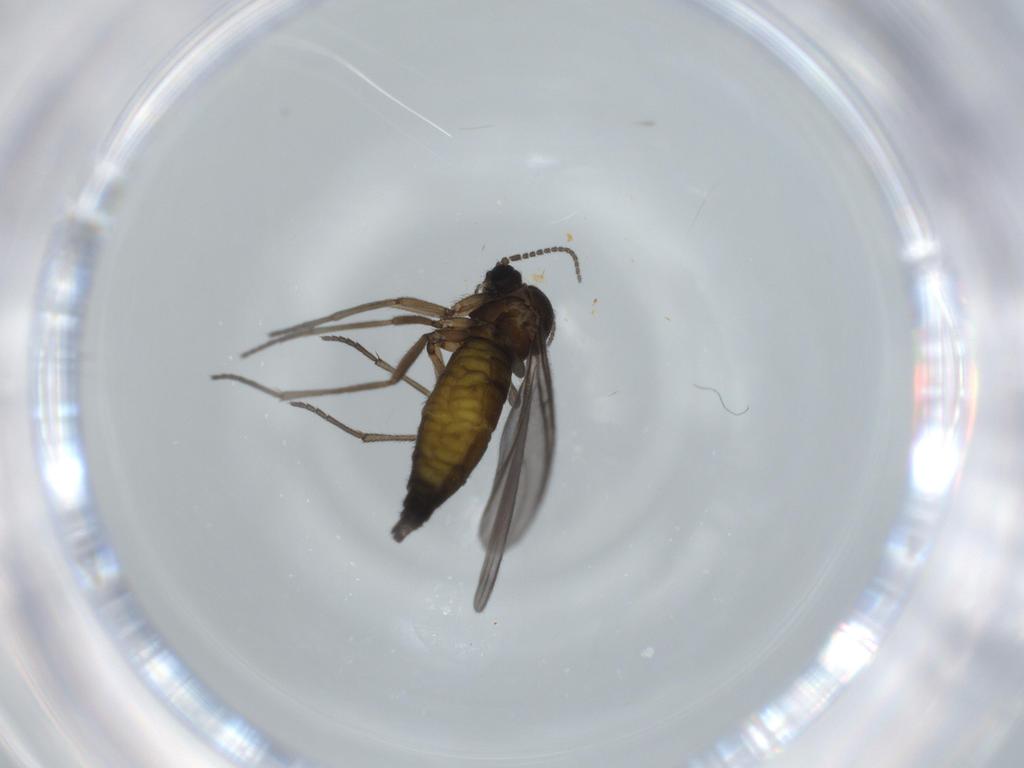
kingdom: Animalia
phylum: Arthropoda
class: Insecta
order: Diptera
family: Sciaridae
